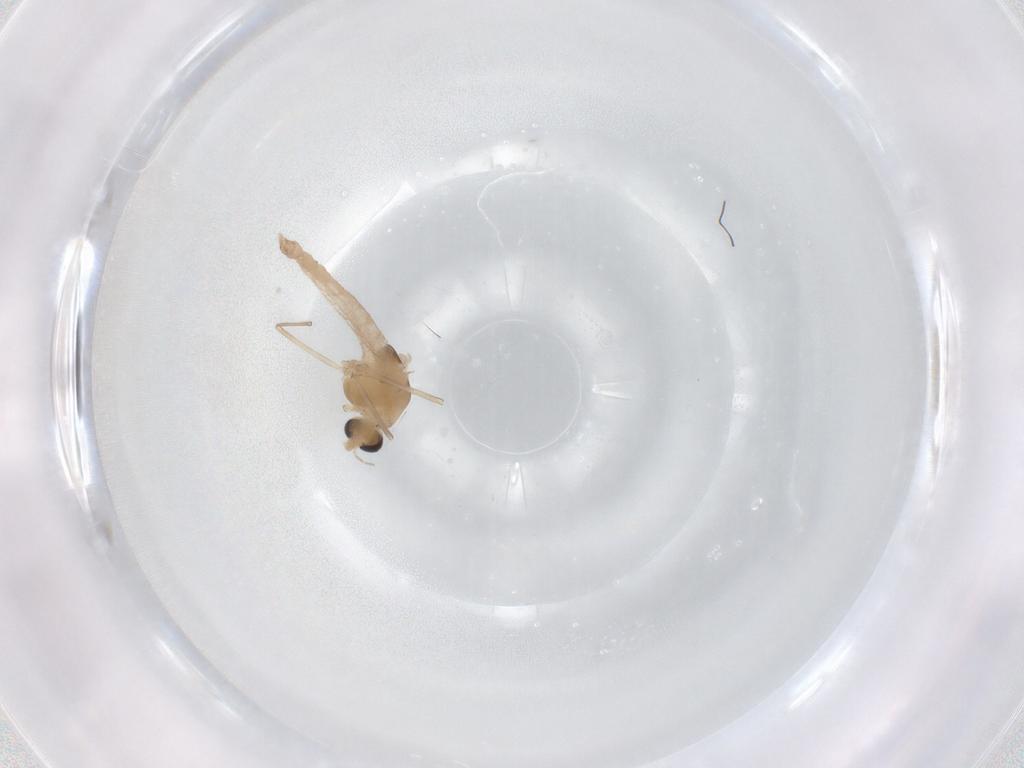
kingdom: Animalia
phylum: Arthropoda
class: Insecta
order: Diptera
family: Chironomidae
